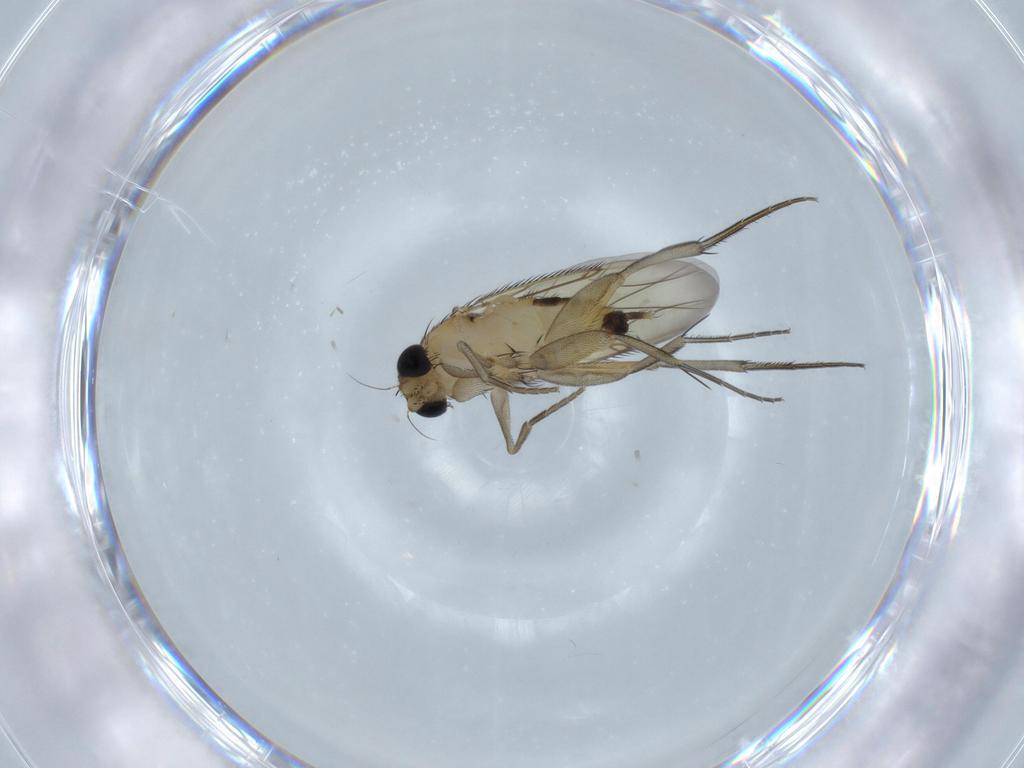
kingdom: Animalia
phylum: Arthropoda
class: Insecta
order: Diptera
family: Phoridae
